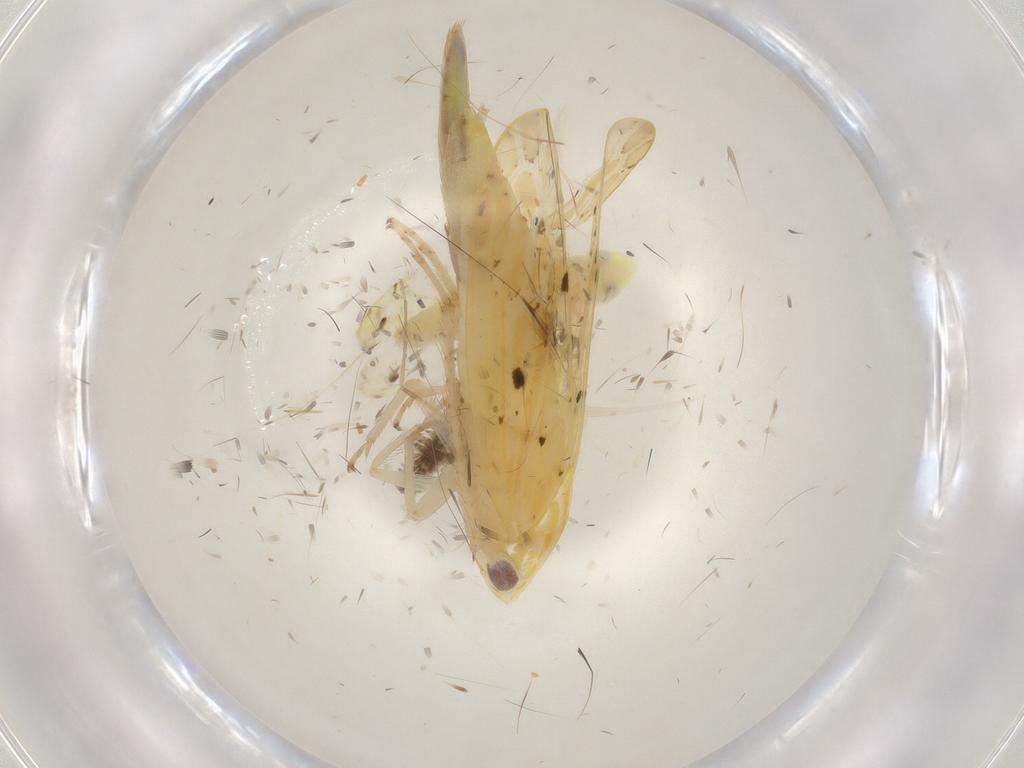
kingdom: Animalia
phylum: Arthropoda
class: Insecta
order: Hemiptera
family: Cicadellidae
